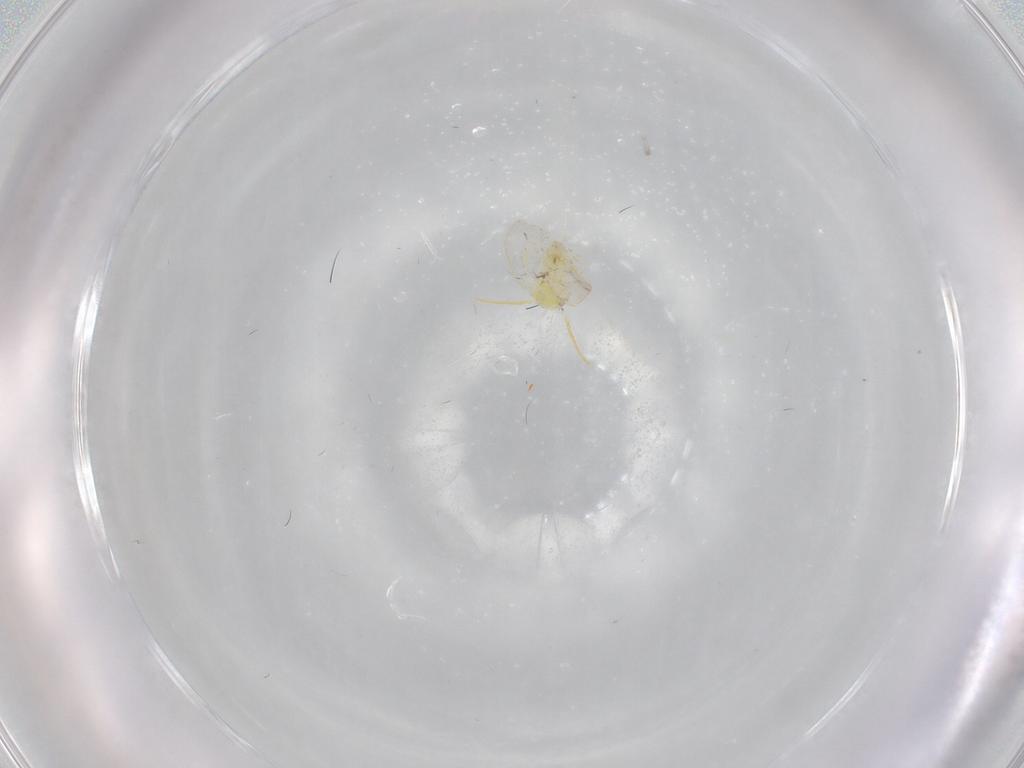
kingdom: Animalia
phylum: Arthropoda
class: Insecta
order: Hemiptera
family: Aleyrodidae
